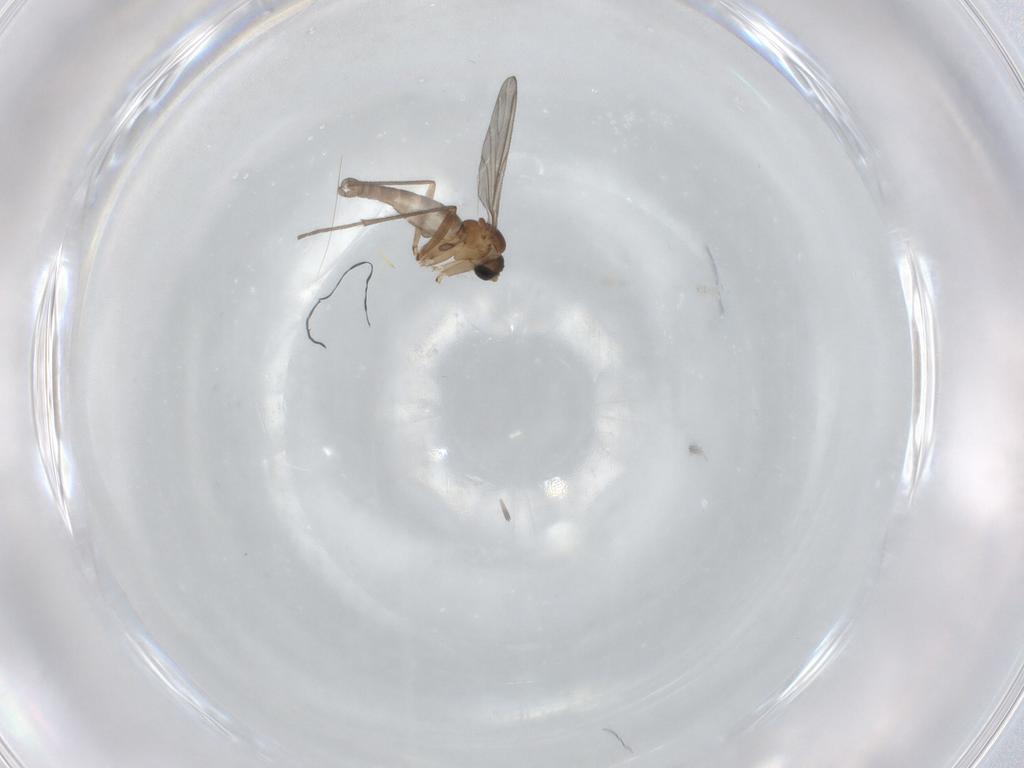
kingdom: Animalia
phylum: Arthropoda
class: Insecta
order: Diptera
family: Sciaridae
